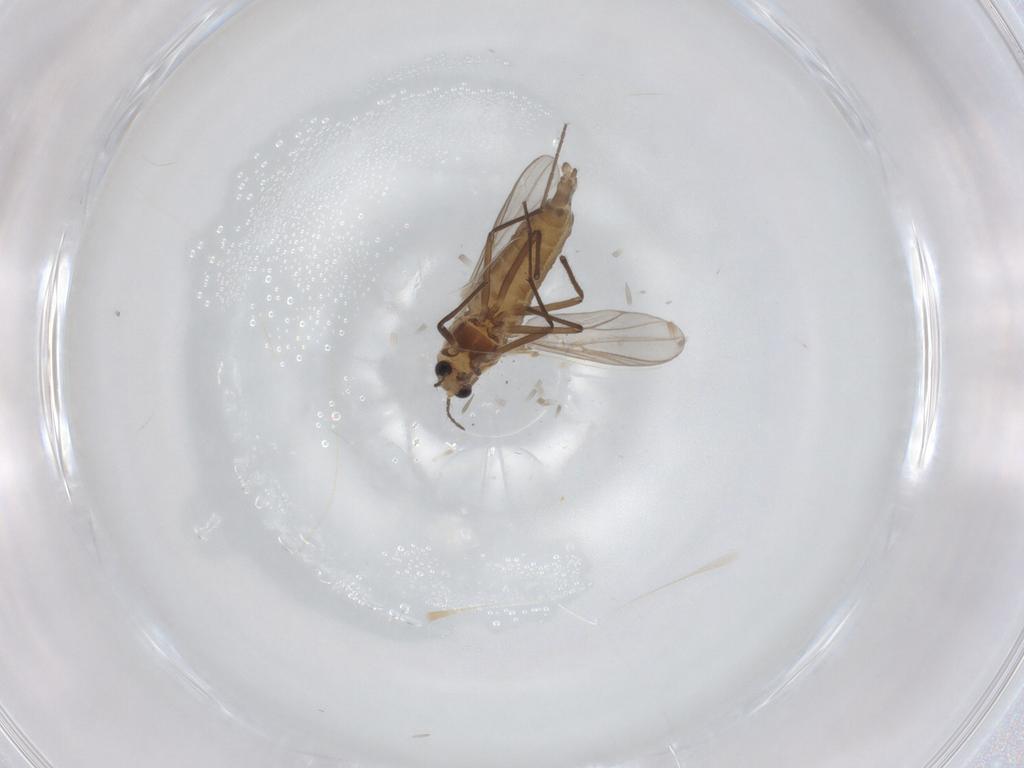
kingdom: Animalia
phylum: Arthropoda
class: Insecta
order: Diptera
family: Chironomidae
